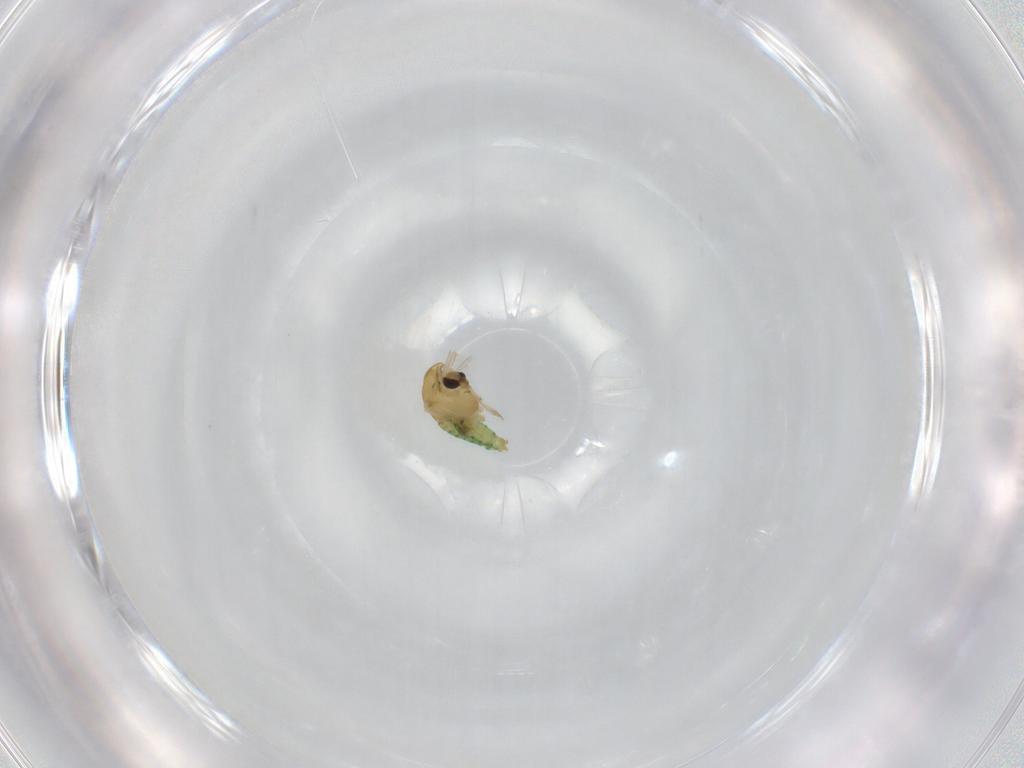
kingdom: Animalia
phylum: Arthropoda
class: Insecta
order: Diptera
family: Chironomidae
